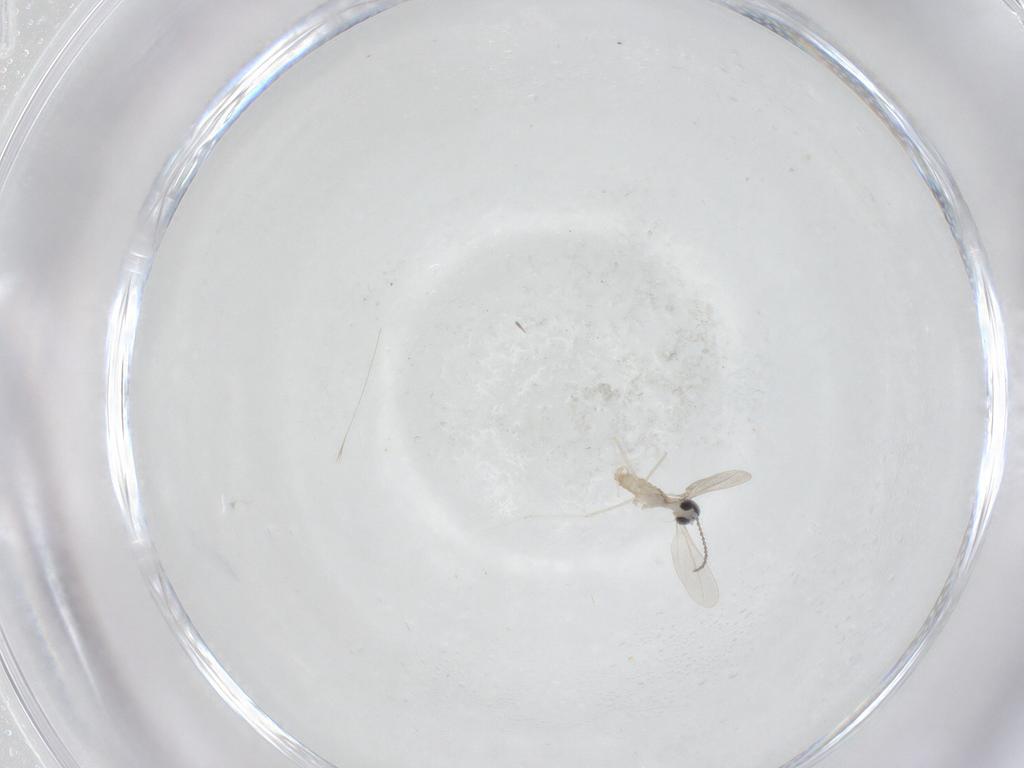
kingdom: Animalia
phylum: Arthropoda
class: Insecta
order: Diptera
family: Cecidomyiidae
